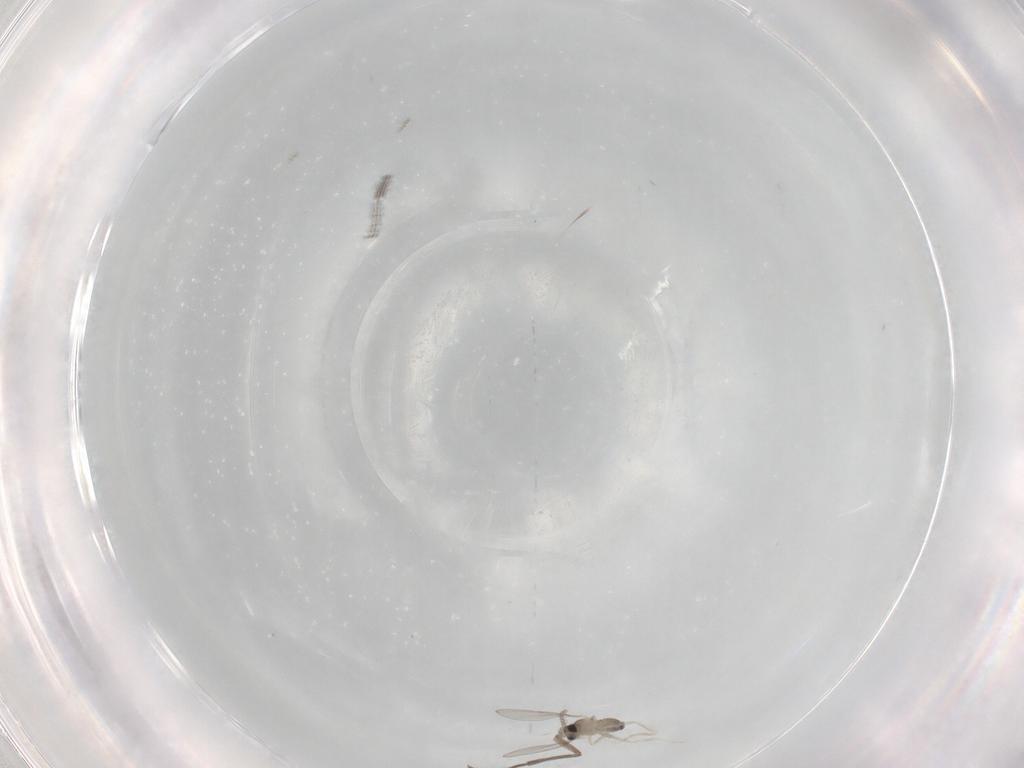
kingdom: Animalia
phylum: Arthropoda
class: Insecta
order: Diptera
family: Cecidomyiidae
